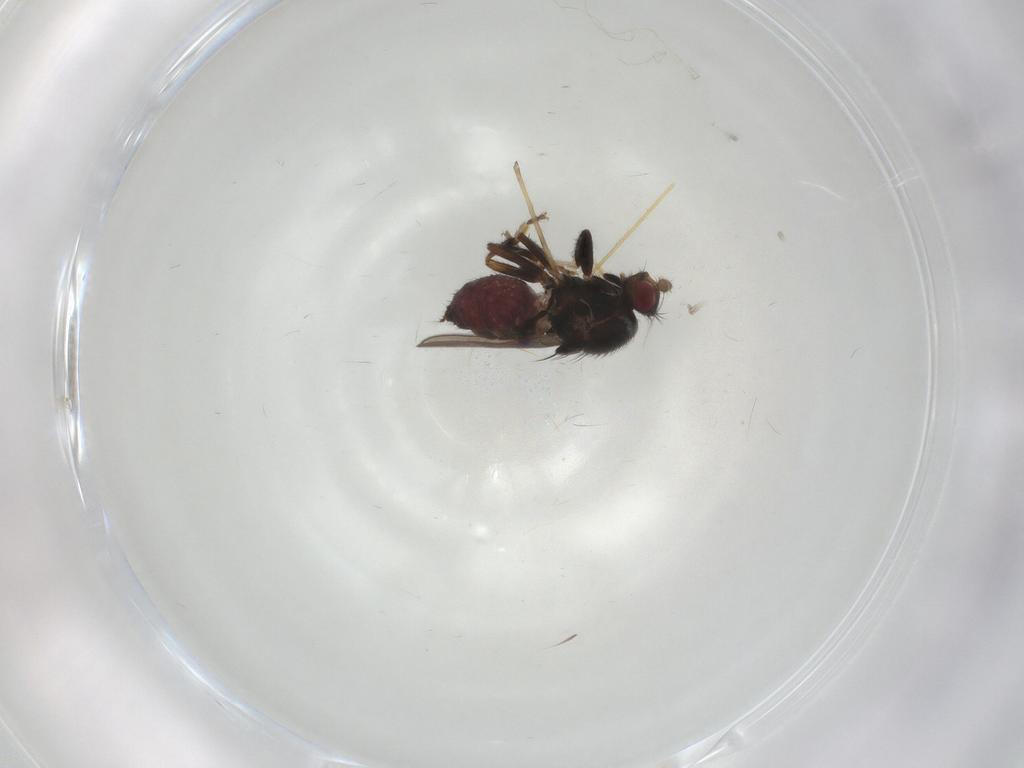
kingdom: Animalia
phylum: Arthropoda
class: Insecta
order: Diptera
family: Sphaeroceridae
